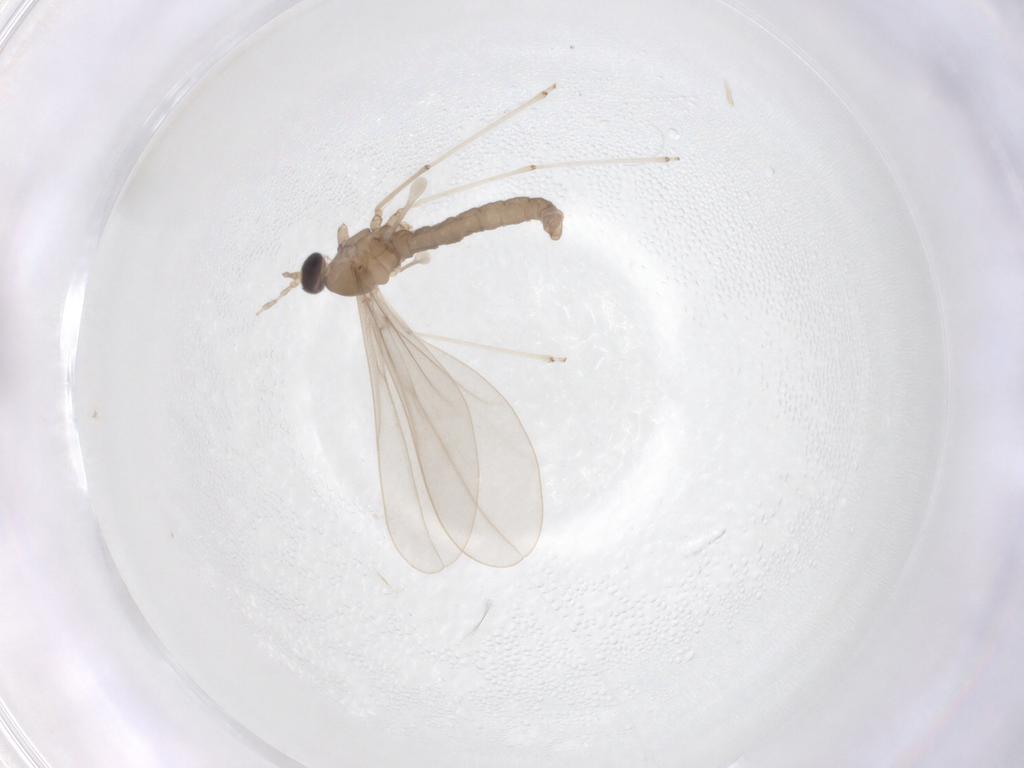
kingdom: Animalia
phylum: Arthropoda
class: Insecta
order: Diptera
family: Cecidomyiidae
